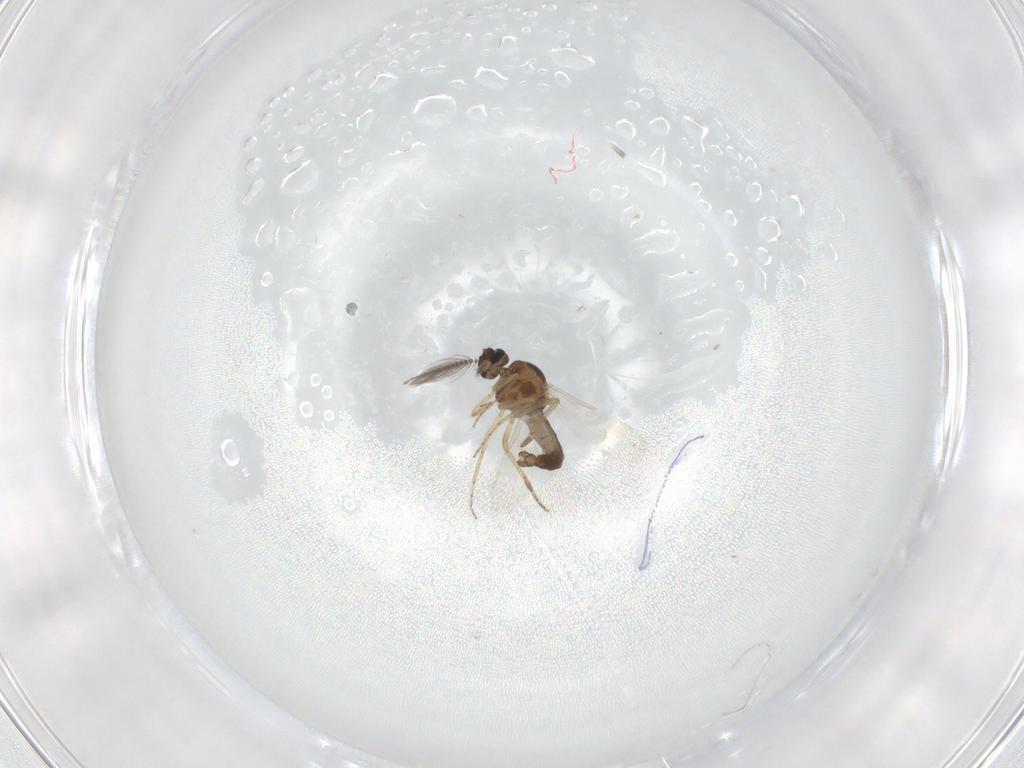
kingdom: Animalia
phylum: Arthropoda
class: Insecta
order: Diptera
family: Ceratopogonidae
